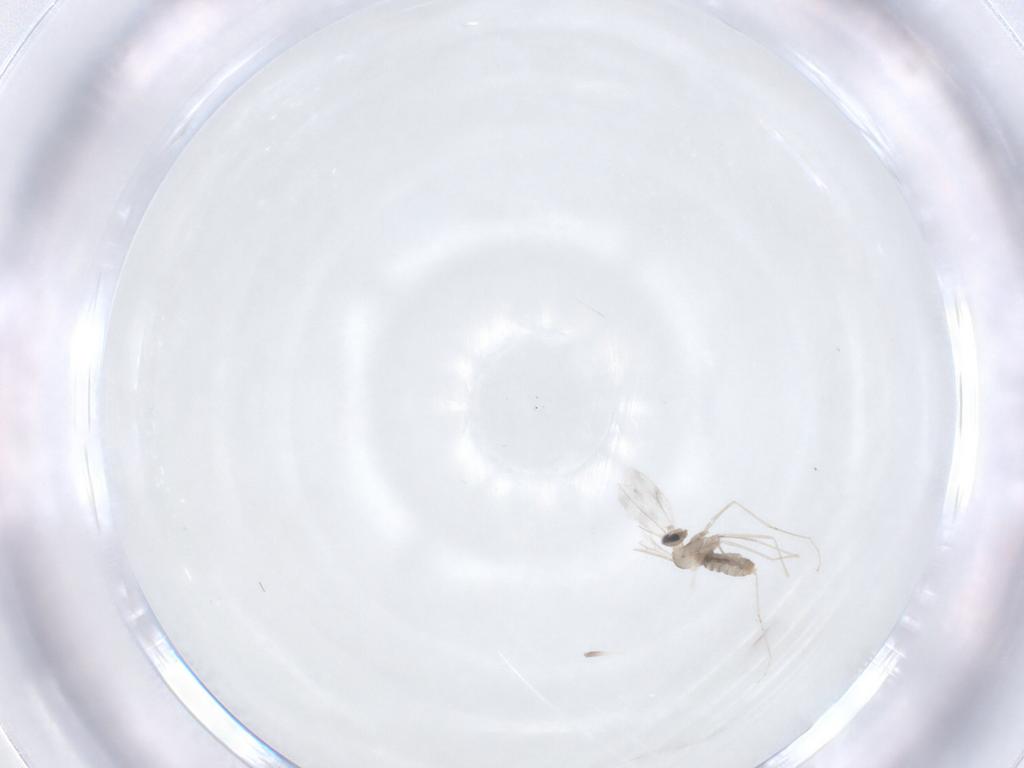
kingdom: Animalia
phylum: Arthropoda
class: Insecta
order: Diptera
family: Cecidomyiidae
